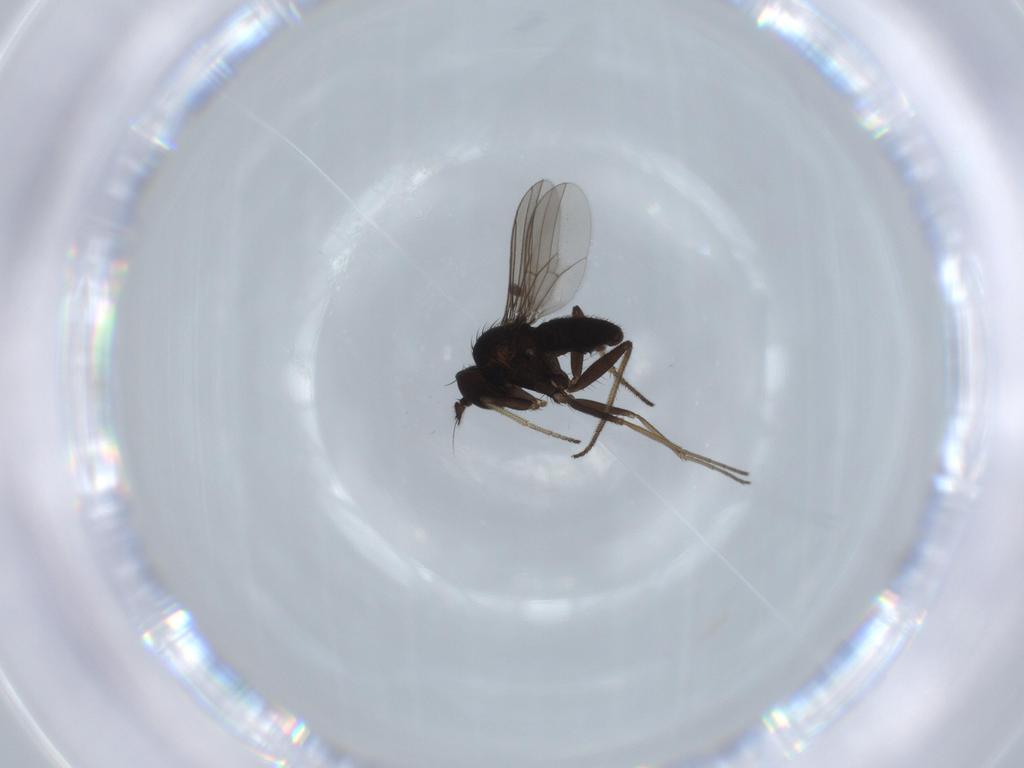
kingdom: Animalia
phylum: Arthropoda
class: Insecta
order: Diptera
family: Dolichopodidae
